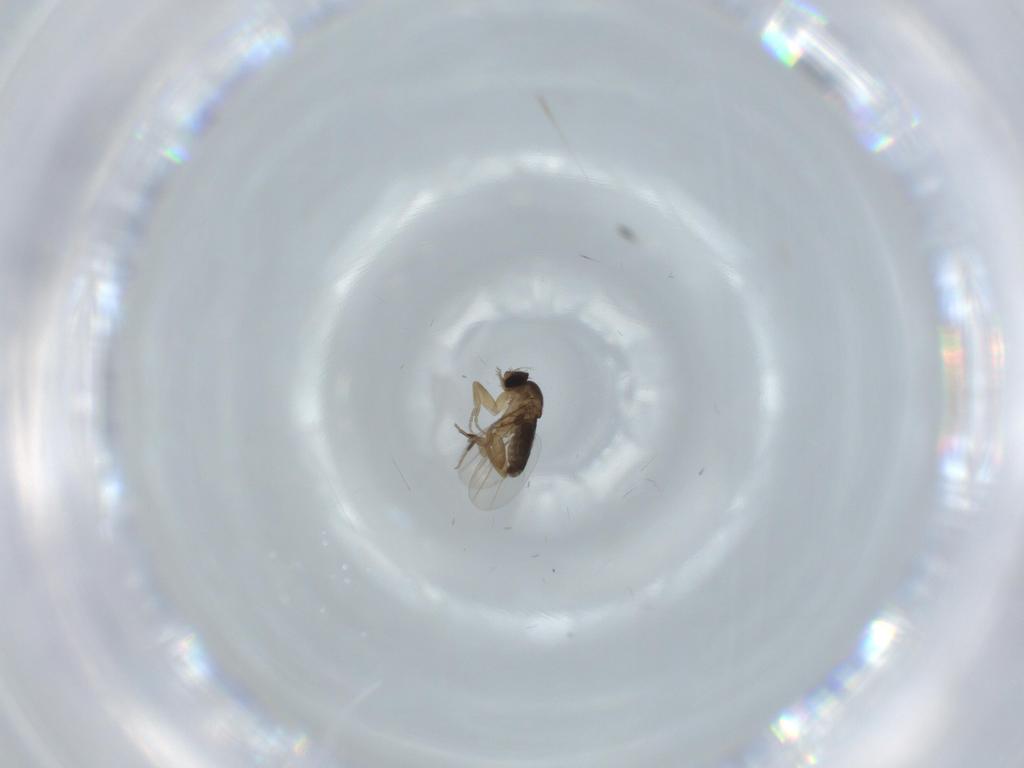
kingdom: Animalia
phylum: Arthropoda
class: Insecta
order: Diptera
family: Phoridae
